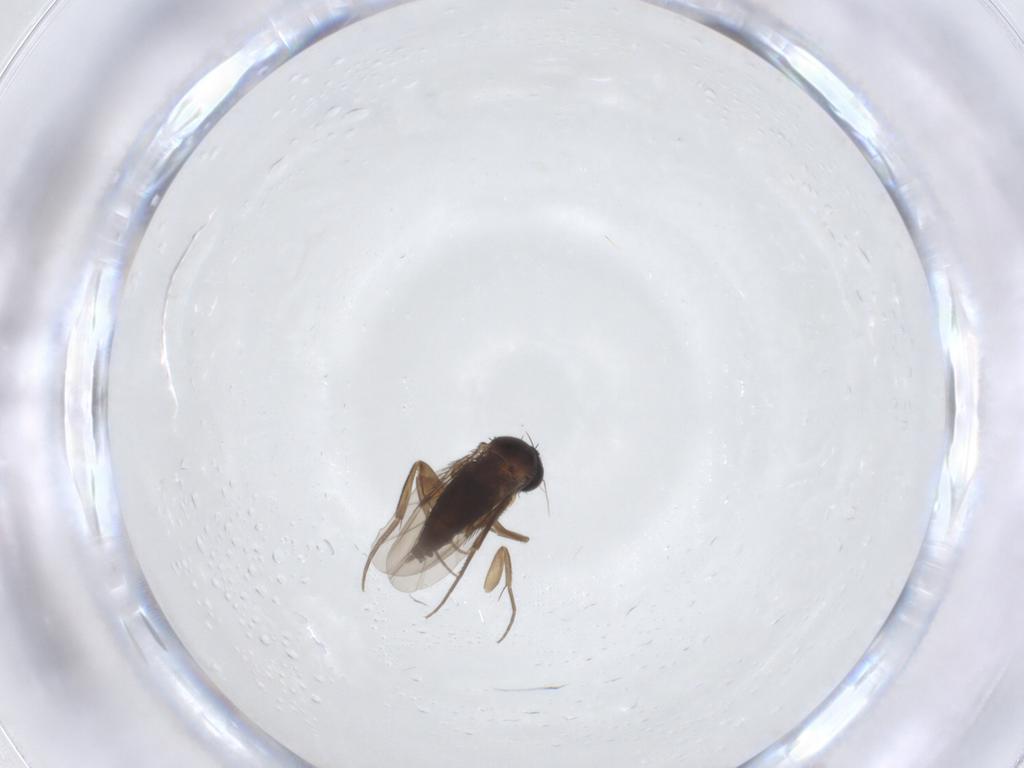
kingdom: Animalia
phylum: Arthropoda
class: Insecta
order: Diptera
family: Phoridae
